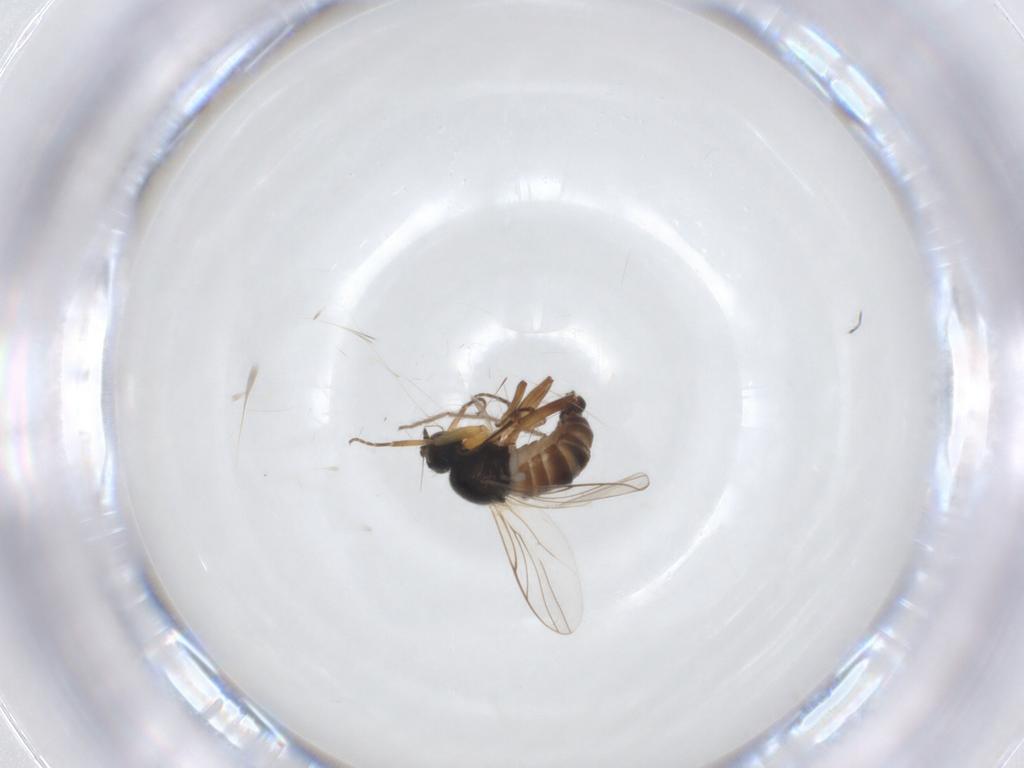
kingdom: Animalia
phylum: Arthropoda
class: Insecta
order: Diptera
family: Hybotidae
